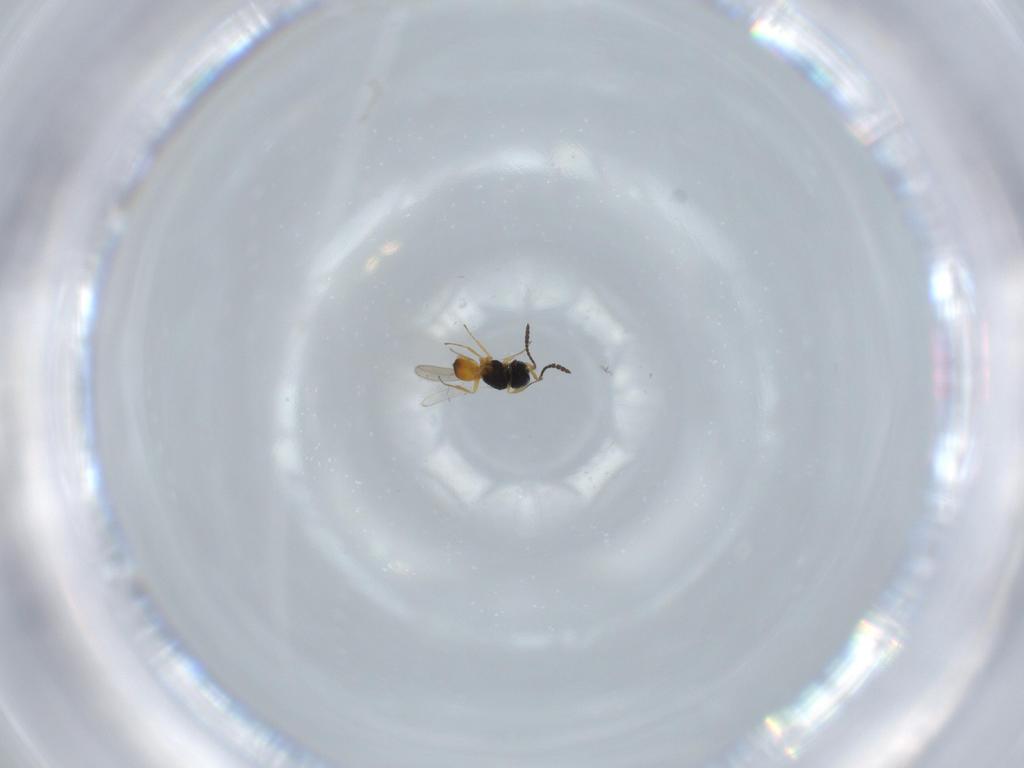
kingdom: Animalia
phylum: Arthropoda
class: Insecta
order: Hymenoptera
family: Scelionidae
